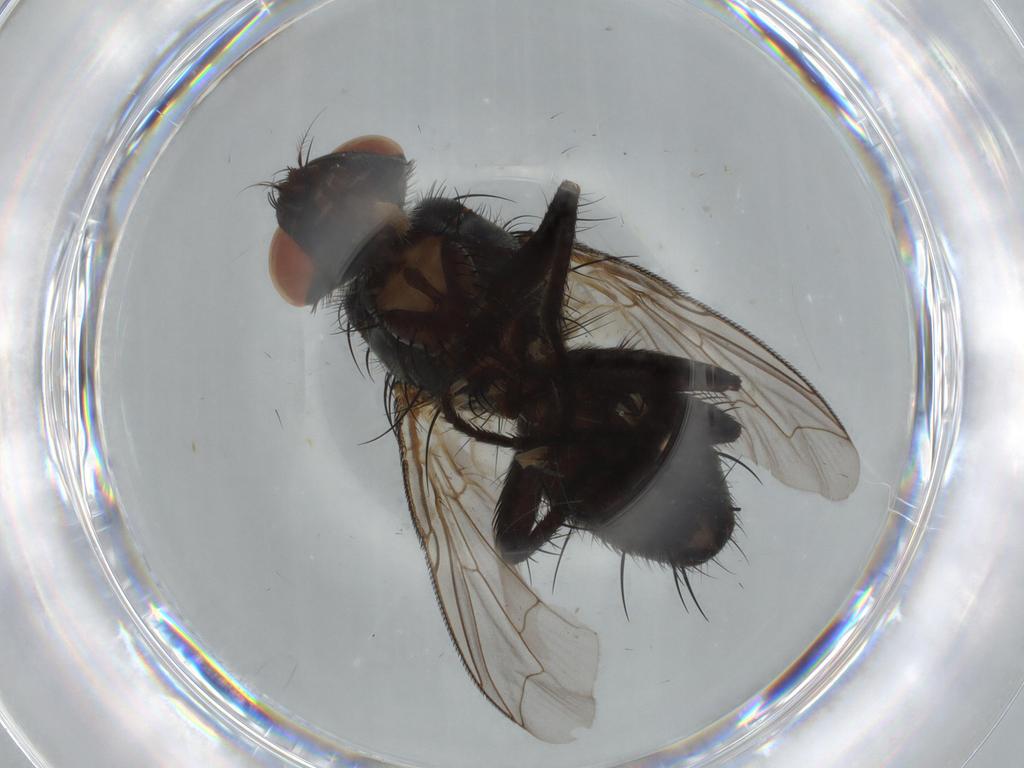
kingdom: Animalia
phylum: Arthropoda
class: Insecta
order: Diptera
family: Sarcophagidae
